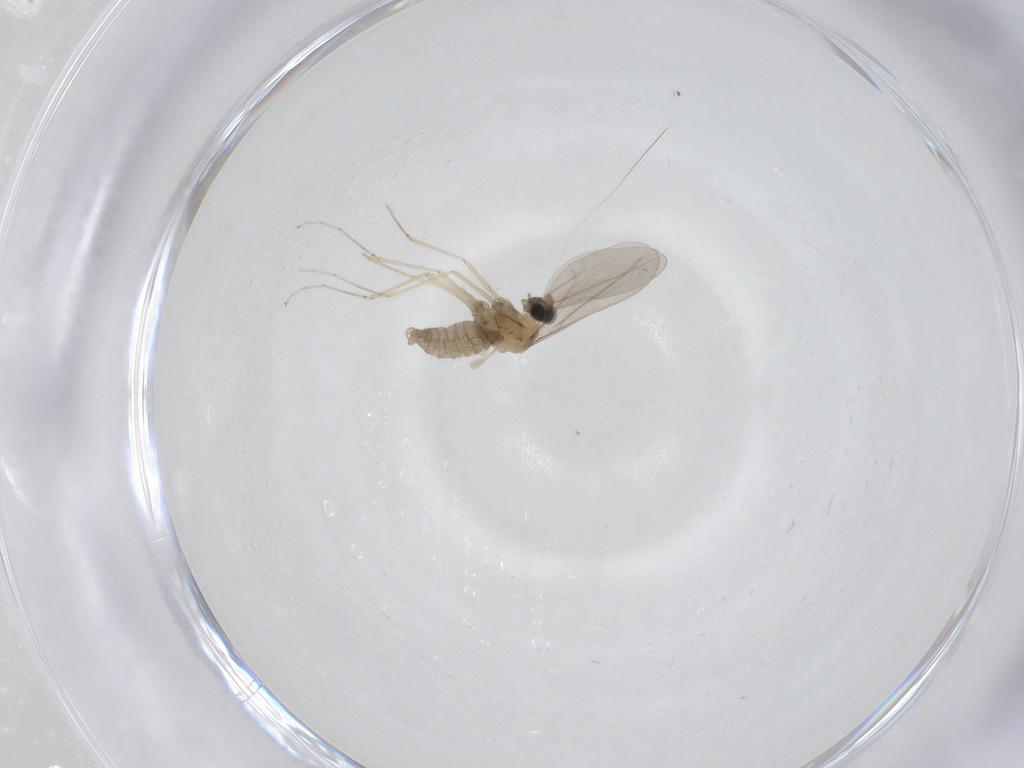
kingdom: Animalia
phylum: Arthropoda
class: Insecta
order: Diptera
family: Cecidomyiidae
